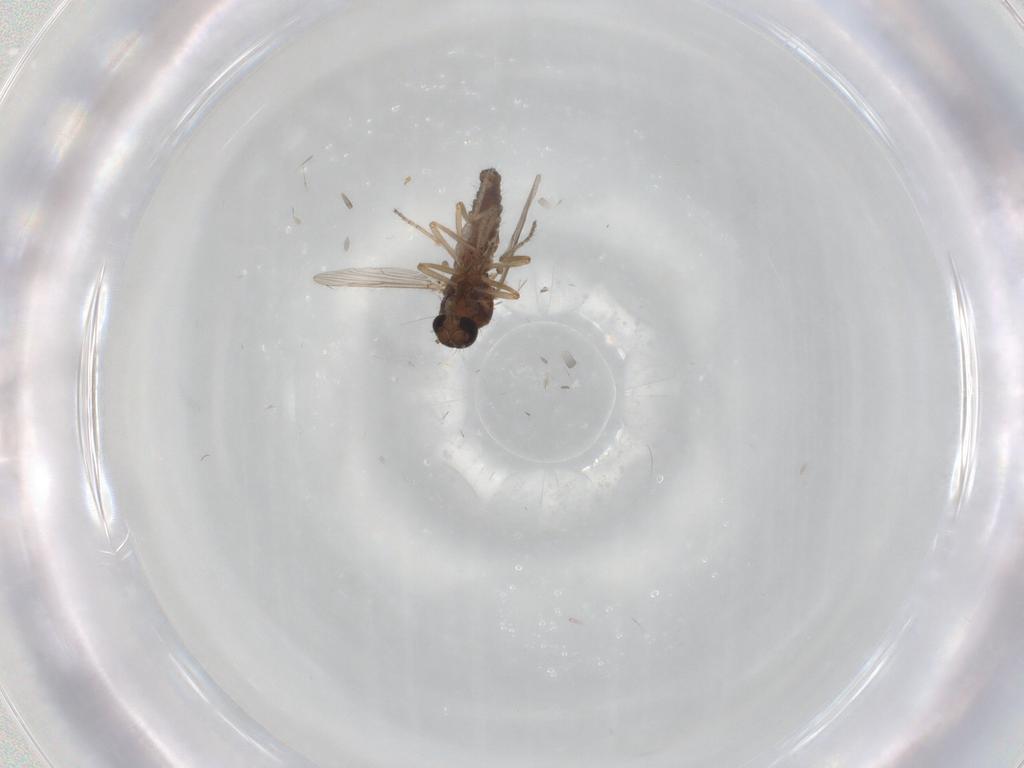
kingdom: Animalia
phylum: Arthropoda
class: Insecta
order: Diptera
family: Ceratopogonidae
